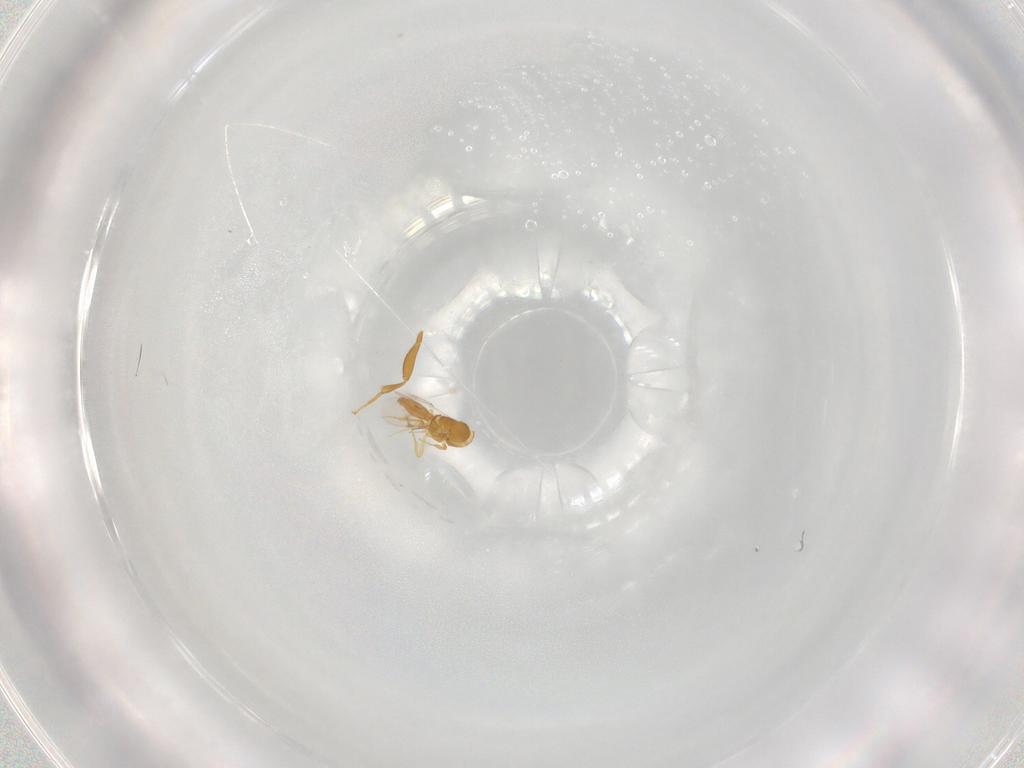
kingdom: Animalia
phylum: Arthropoda
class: Insecta
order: Hymenoptera
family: Scelionidae
